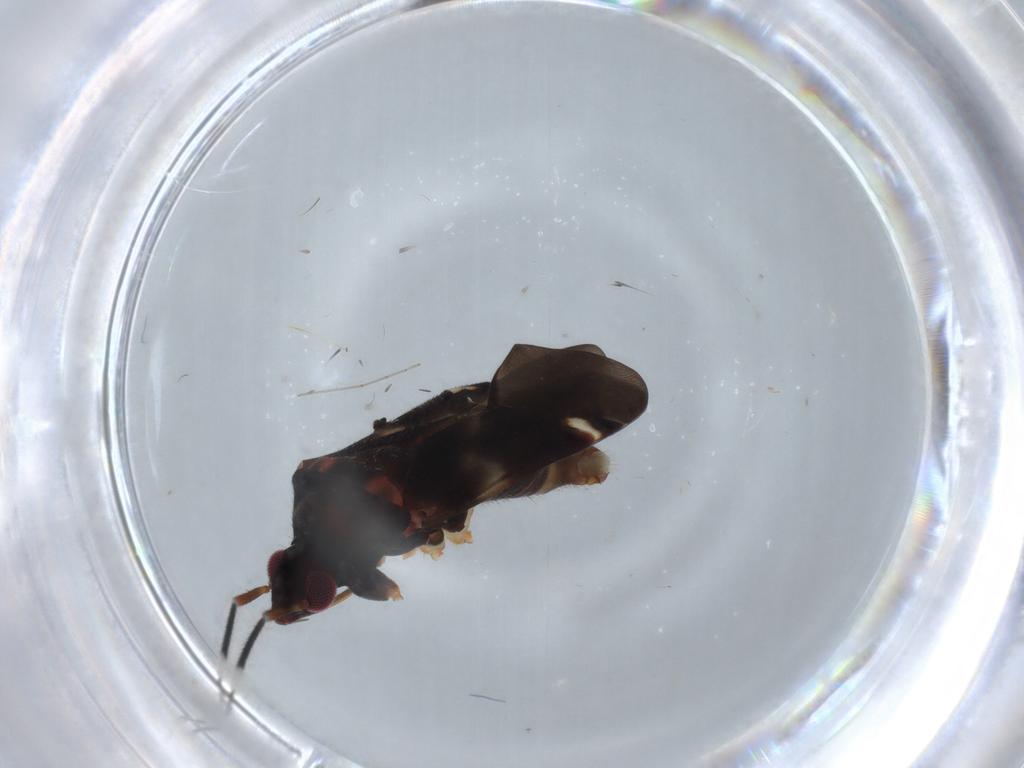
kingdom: Animalia
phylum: Arthropoda
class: Insecta
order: Hemiptera
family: Miridae
